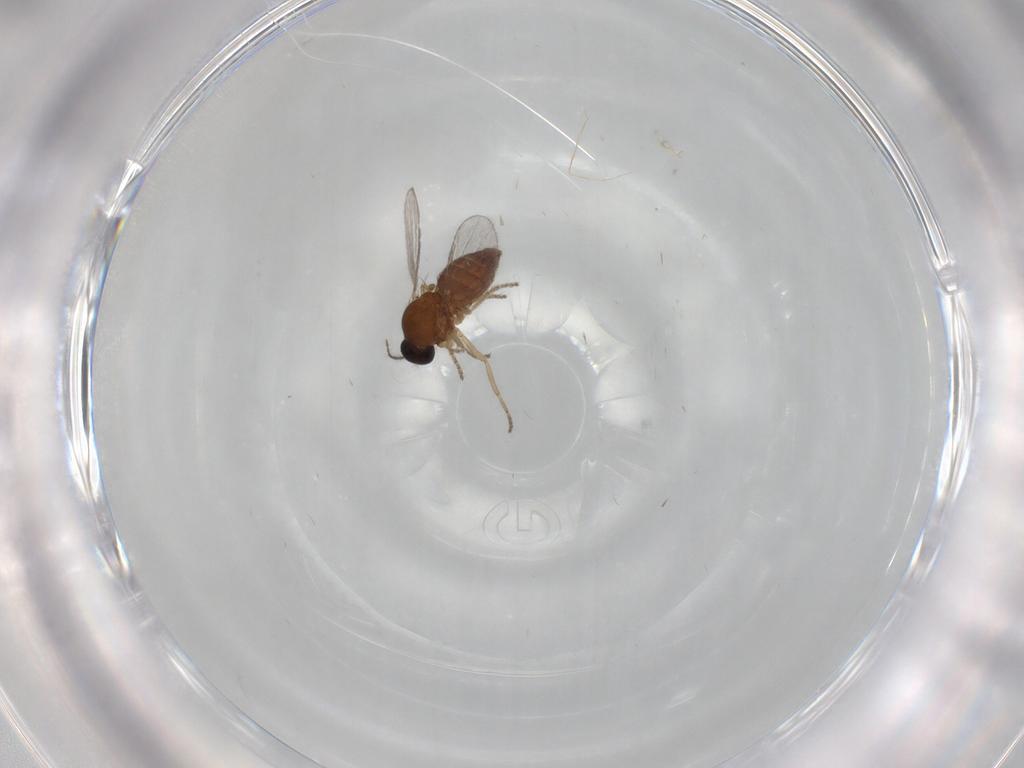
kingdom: Animalia
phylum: Arthropoda
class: Insecta
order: Diptera
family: Ceratopogonidae
